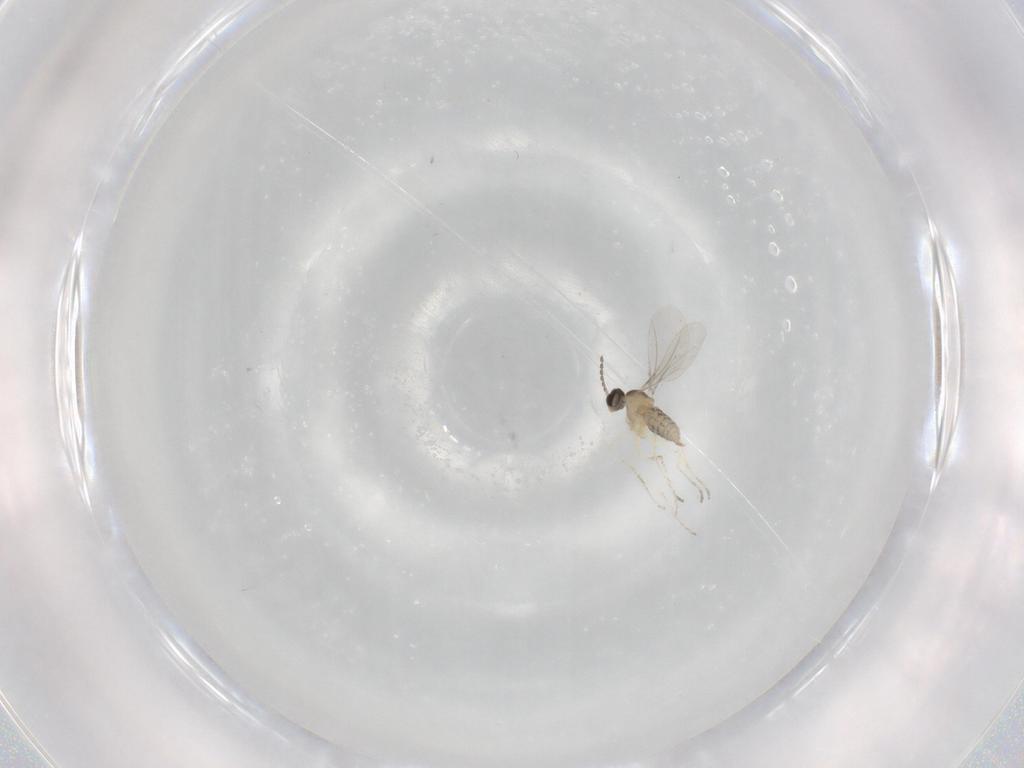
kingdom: Animalia
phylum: Arthropoda
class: Insecta
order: Diptera
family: Cecidomyiidae
